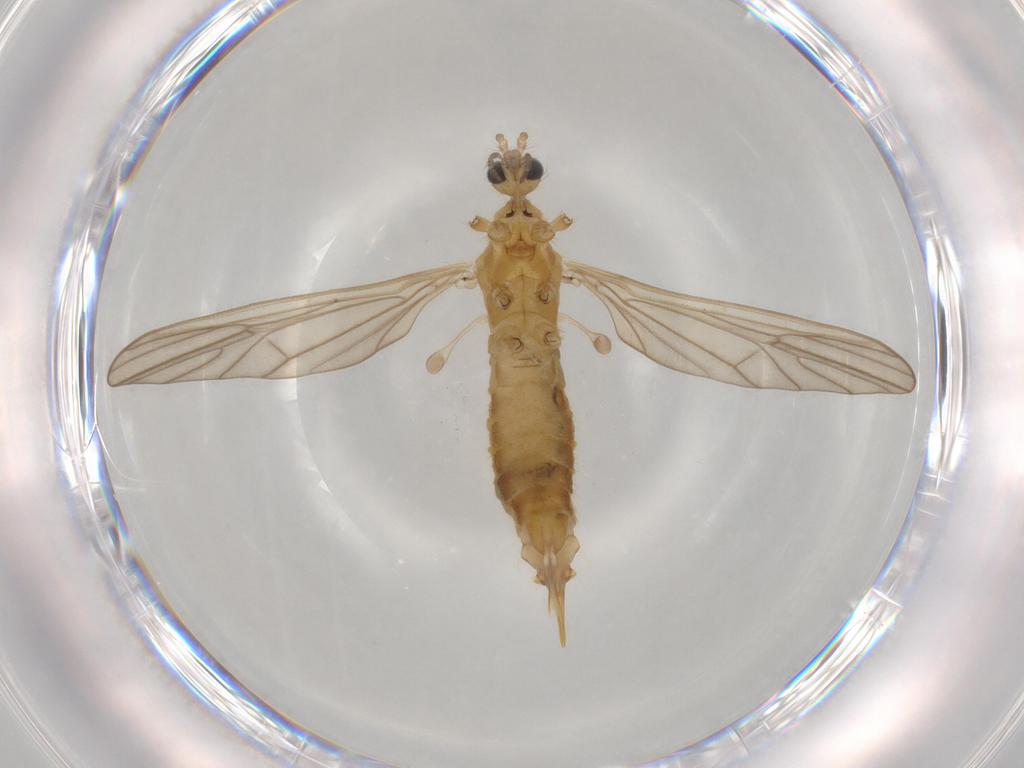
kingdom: Animalia
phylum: Arthropoda
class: Insecta
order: Diptera
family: Limoniidae
